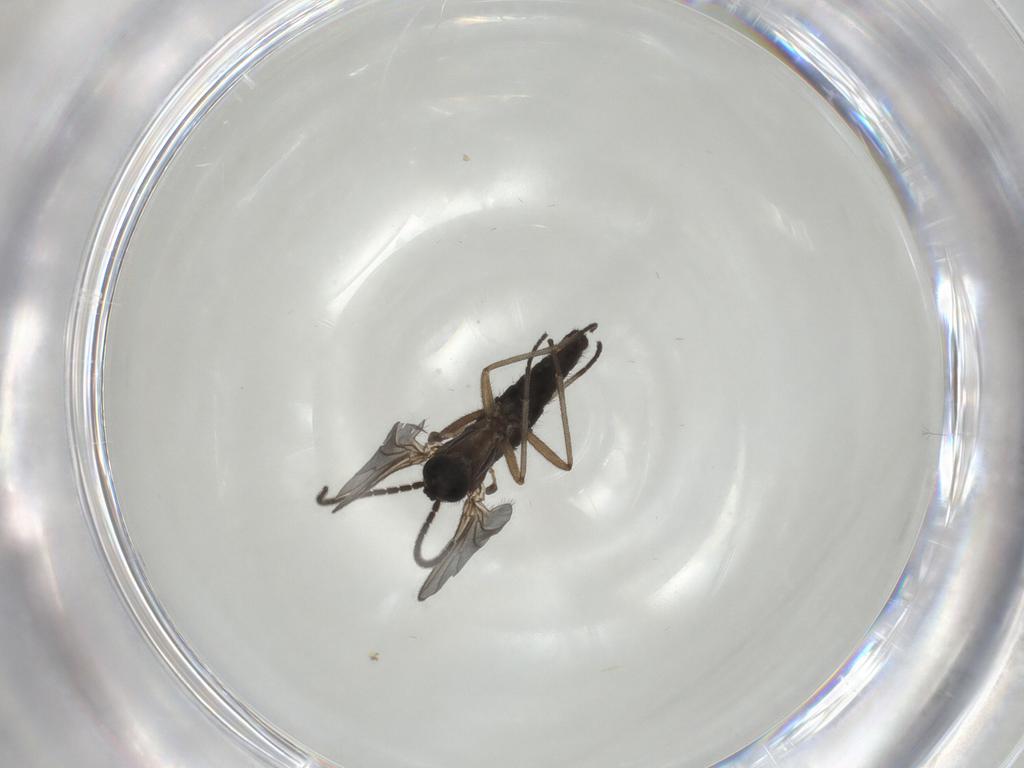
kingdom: Animalia
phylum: Arthropoda
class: Insecta
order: Diptera
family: Sciaridae
